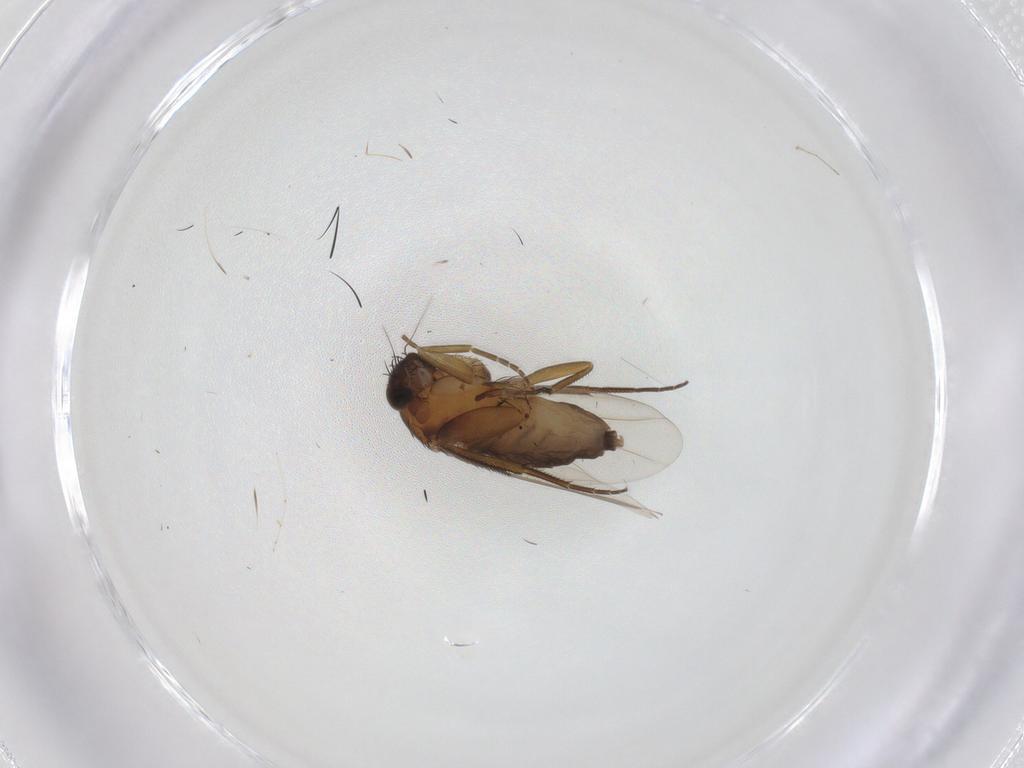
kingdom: Animalia
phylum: Arthropoda
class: Insecta
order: Diptera
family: Phoridae
